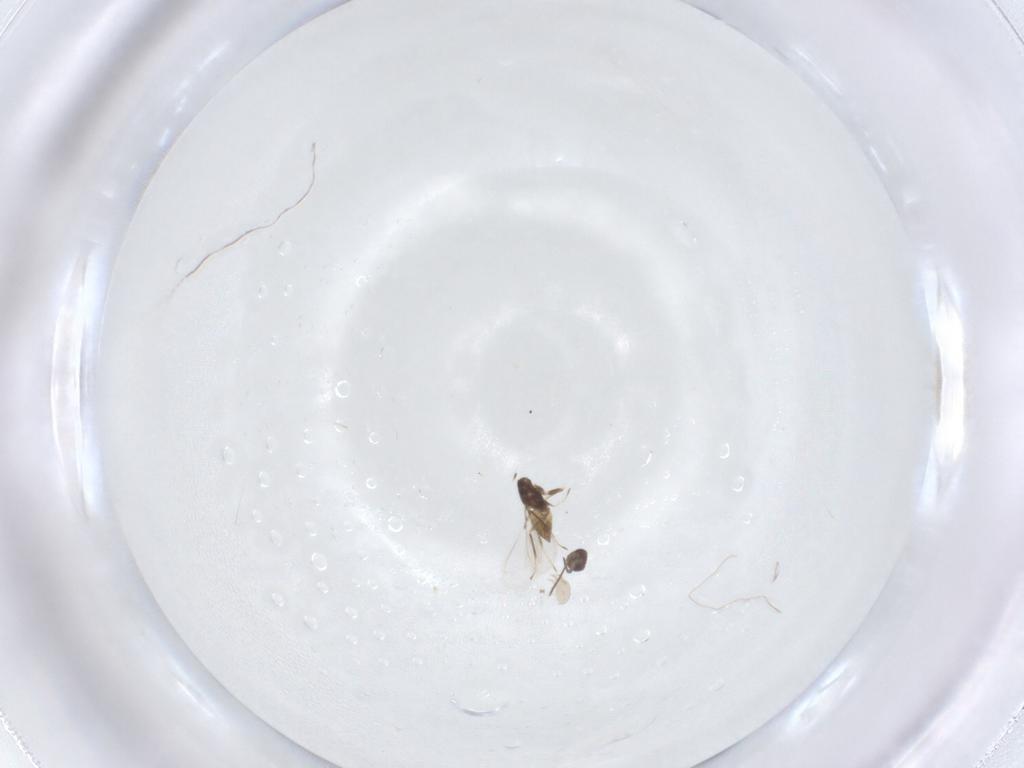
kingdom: Animalia
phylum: Arthropoda
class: Insecta
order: Hymenoptera
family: Mymaridae
